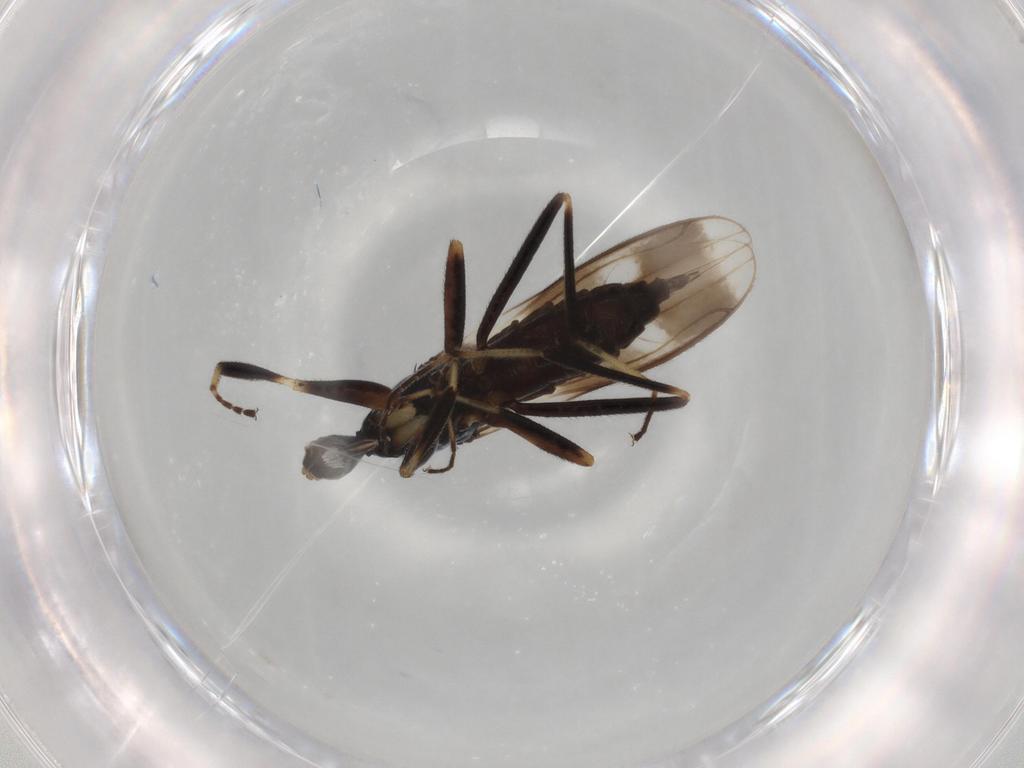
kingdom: Animalia
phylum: Arthropoda
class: Insecta
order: Diptera
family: Hybotidae
